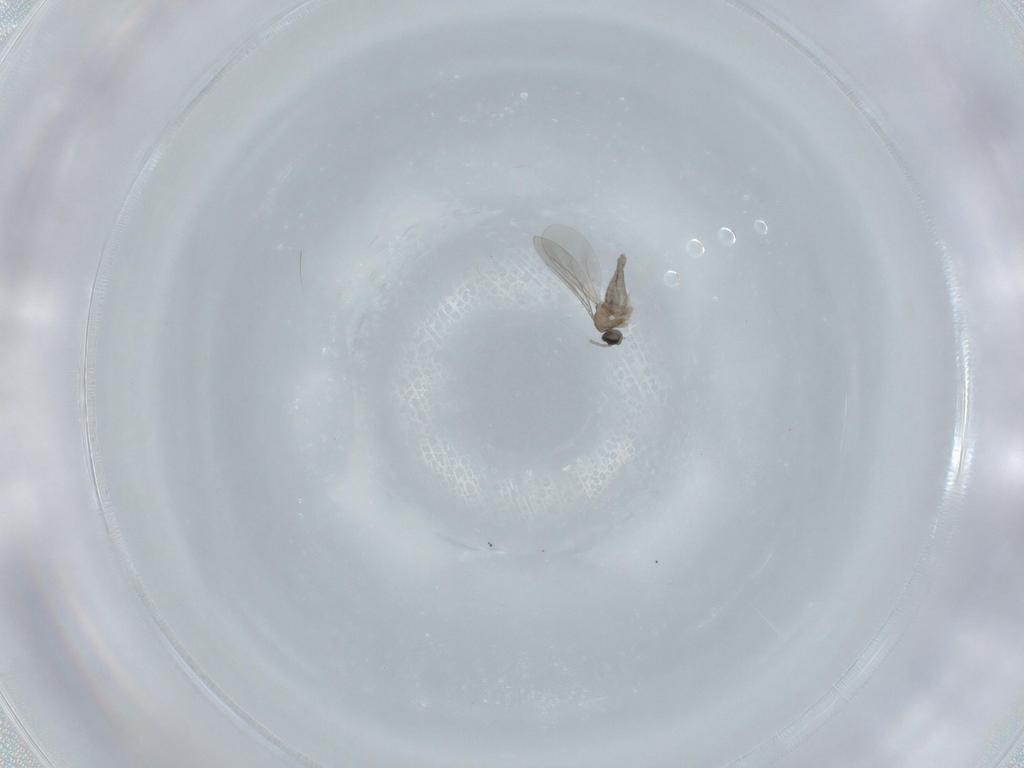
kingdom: Animalia
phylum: Arthropoda
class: Insecta
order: Diptera
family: Cecidomyiidae
